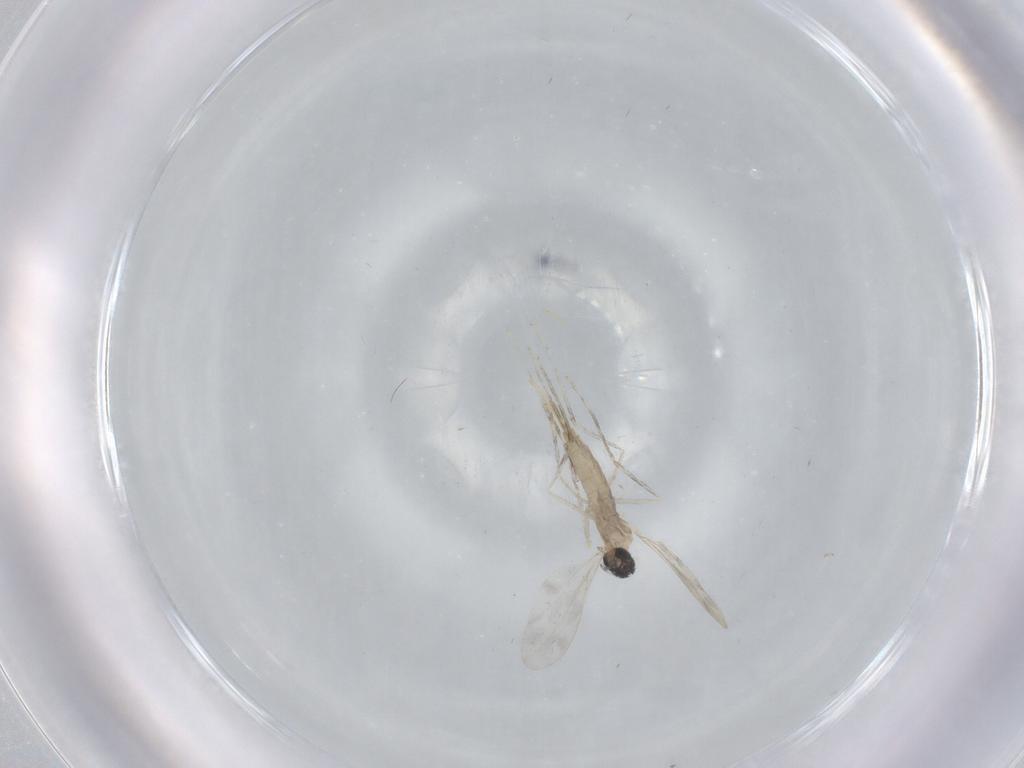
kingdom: Animalia
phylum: Arthropoda
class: Insecta
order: Diptera
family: Cecidomyiidae
